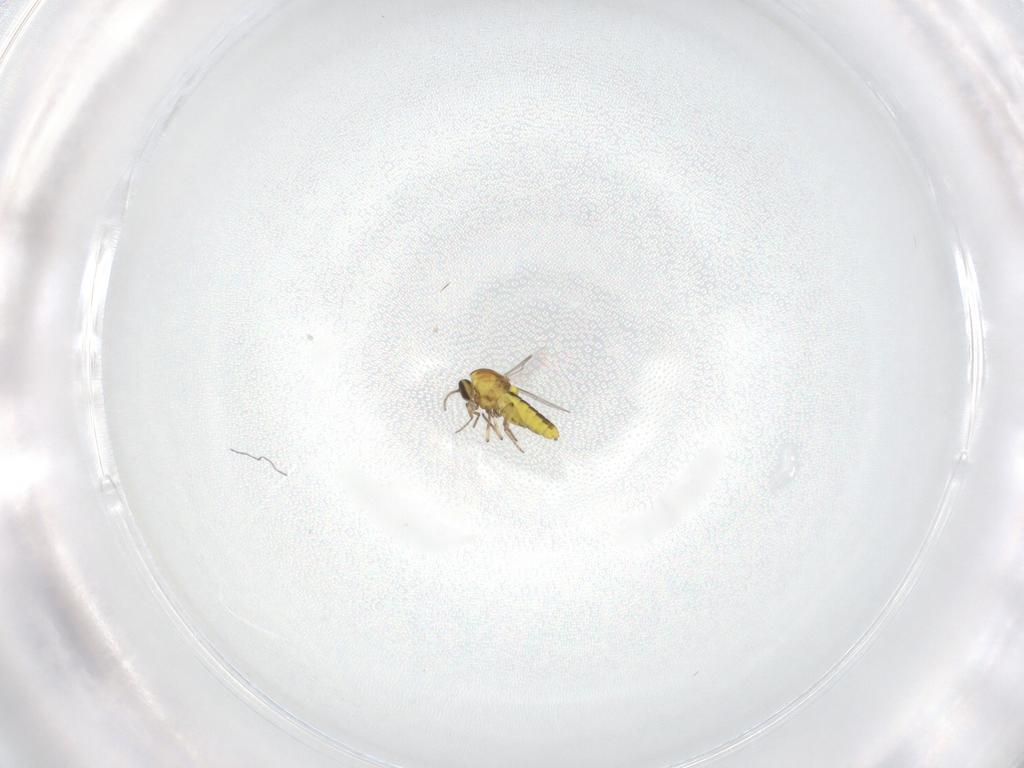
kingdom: Animalia
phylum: Arthropoda
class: Insecta
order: Diptera
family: Ceratopogonidae
